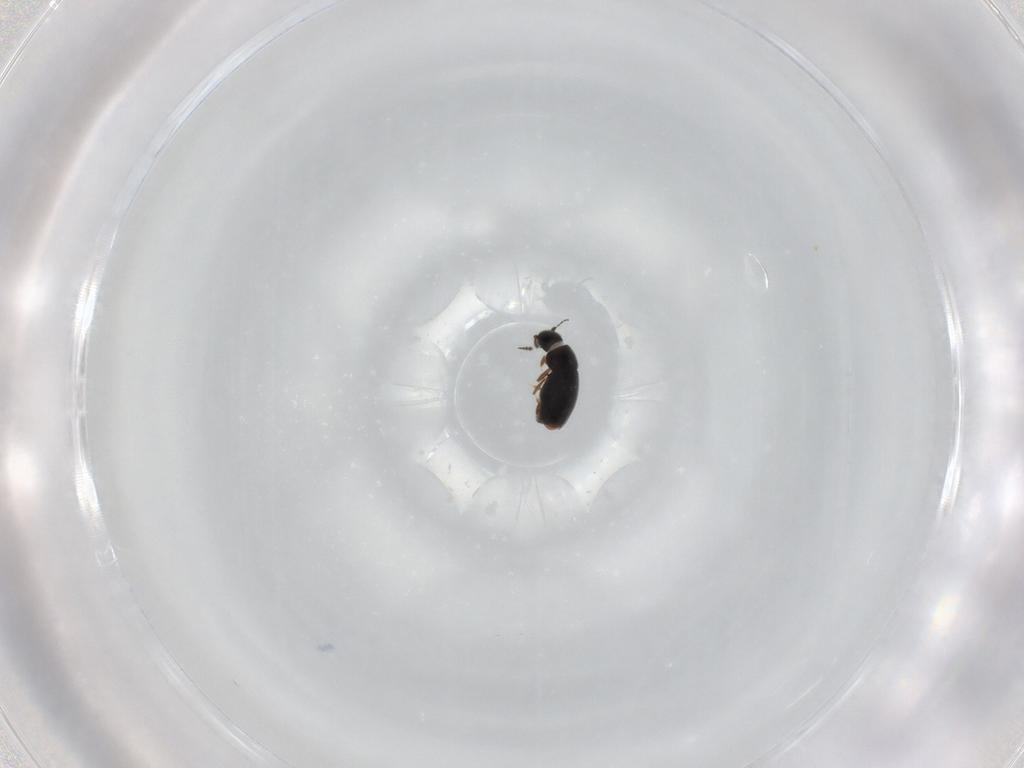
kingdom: Animalia
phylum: Arthropoda
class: Insecta
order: Coleoptera
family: Ptiliidae
